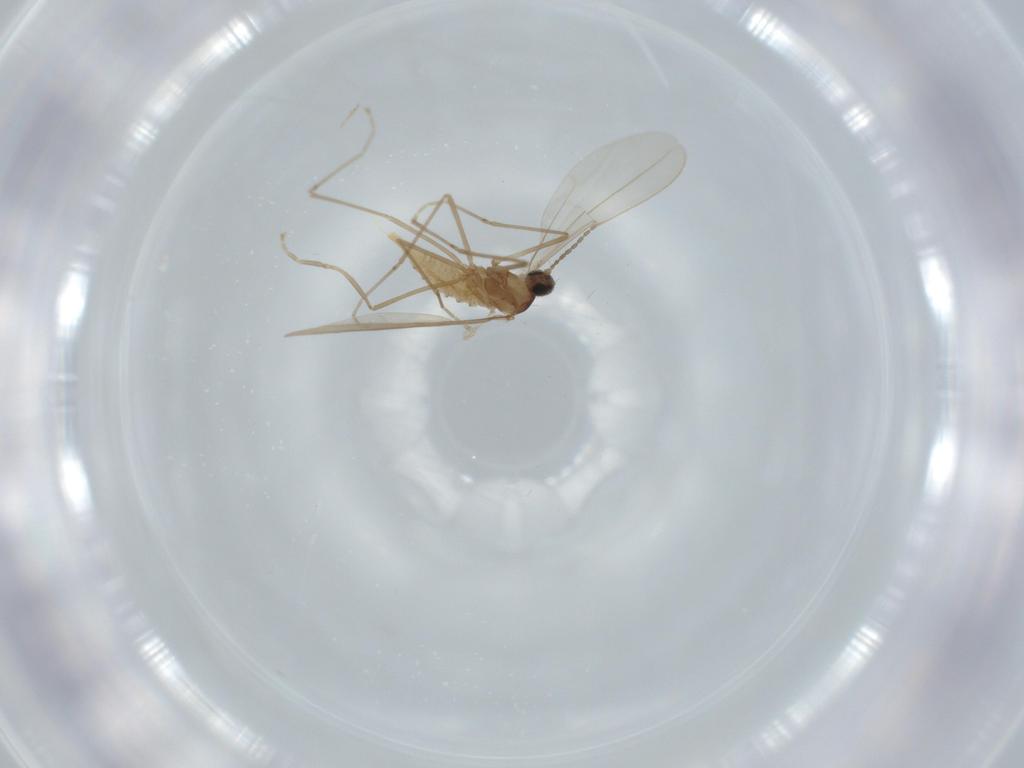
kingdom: Animalia
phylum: Arthropoda
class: Insecta
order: Diptera
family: Cecidomyiidae
